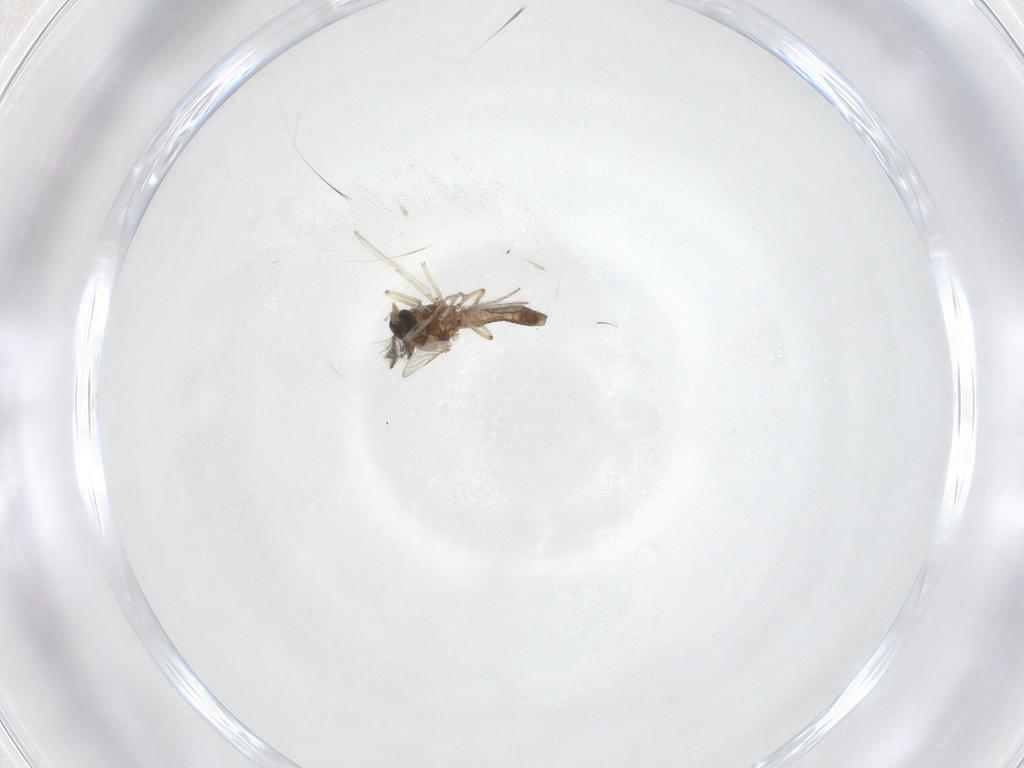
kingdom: Animalia
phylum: Arthropoda
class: Insecta
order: Diptera
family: Ceratopogonidae
